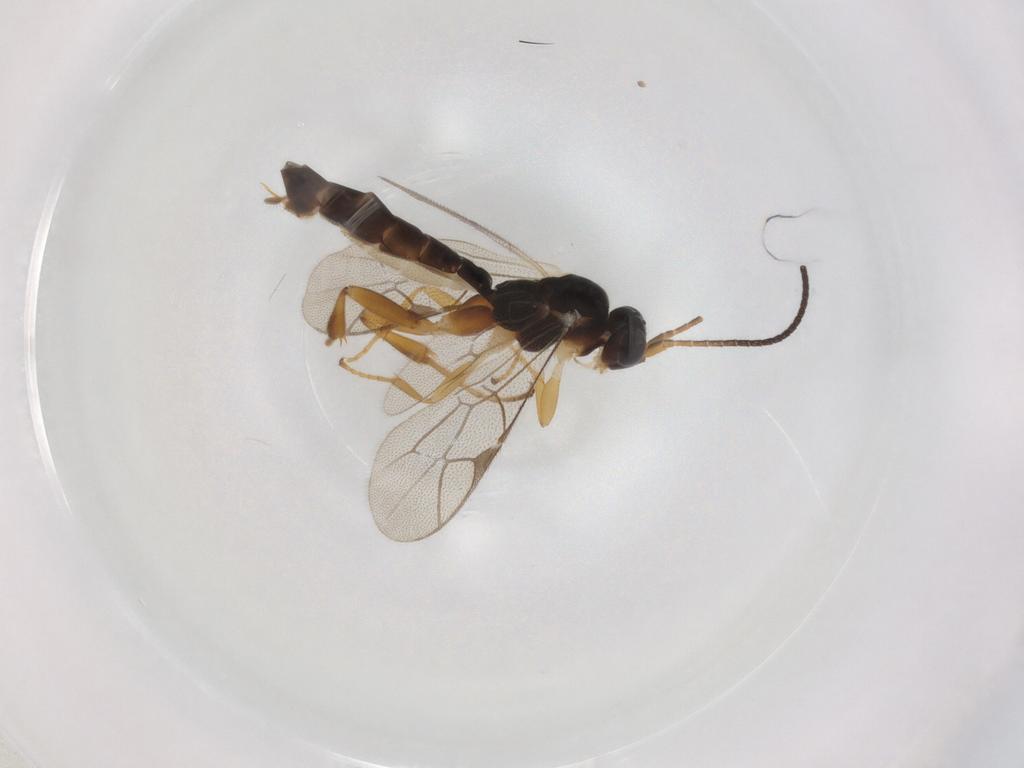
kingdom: Animalia
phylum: Arthropoda
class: Insecta
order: Hymenoptera
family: Ichneumonidae
